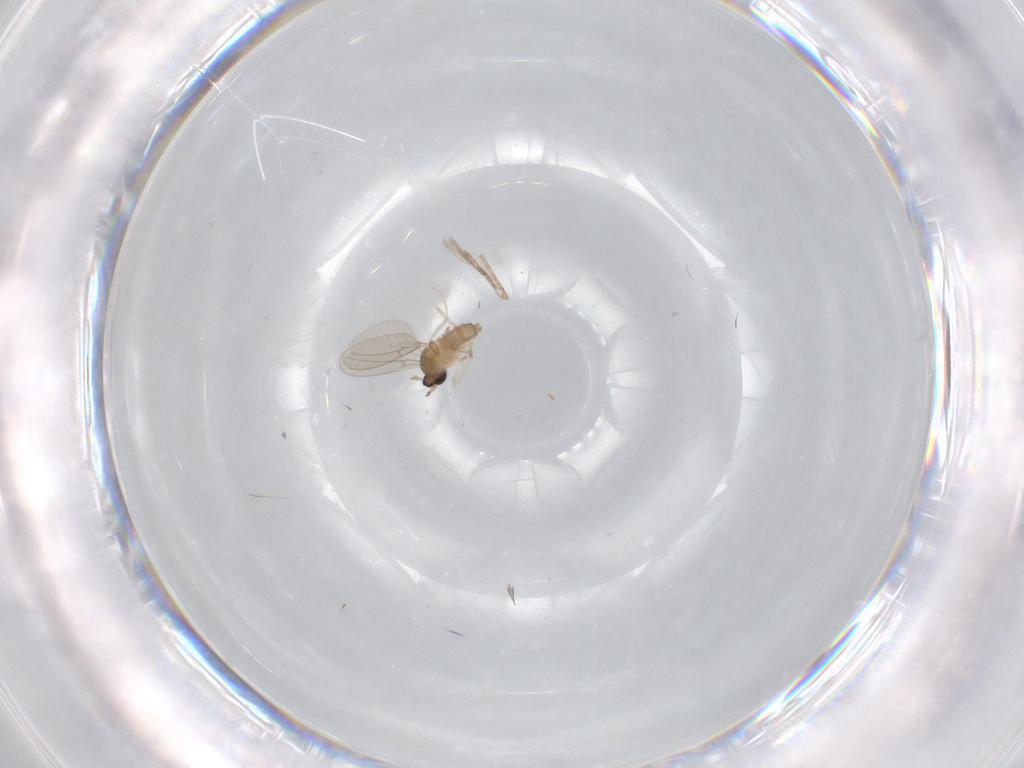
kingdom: Animalia
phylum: Arthropoda
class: Insecta
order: Diptera
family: Cecidomyiidae
